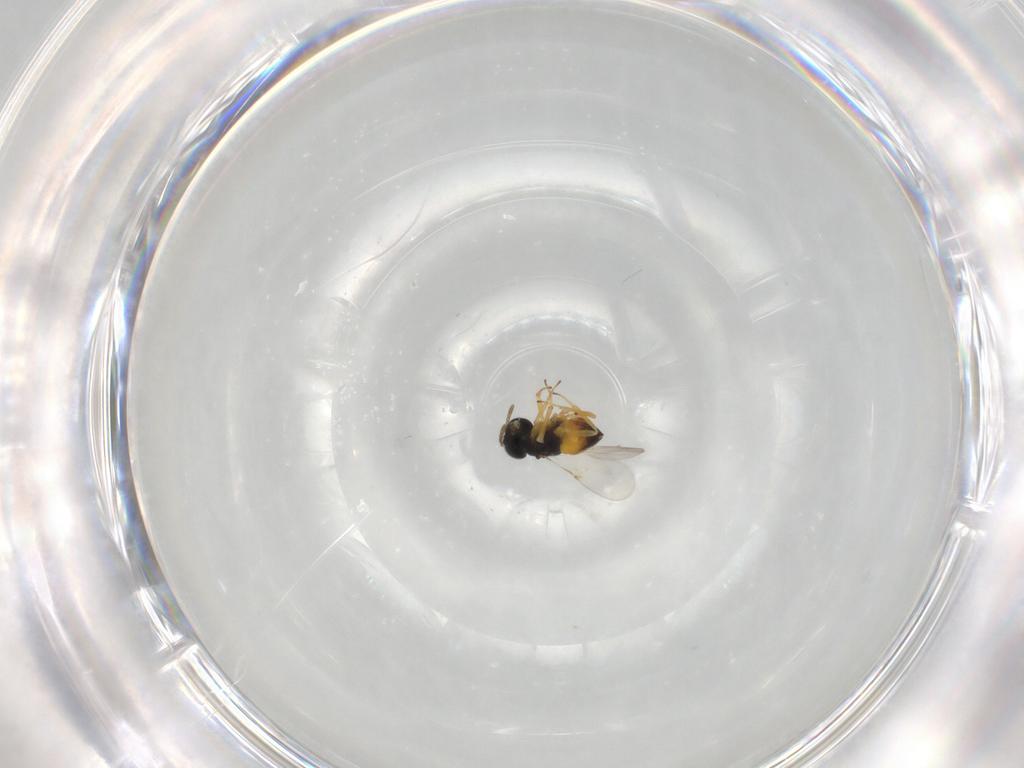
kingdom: Animalia
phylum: Arthropoda
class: Insecta
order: Hymenoptera
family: Encyrtidae
